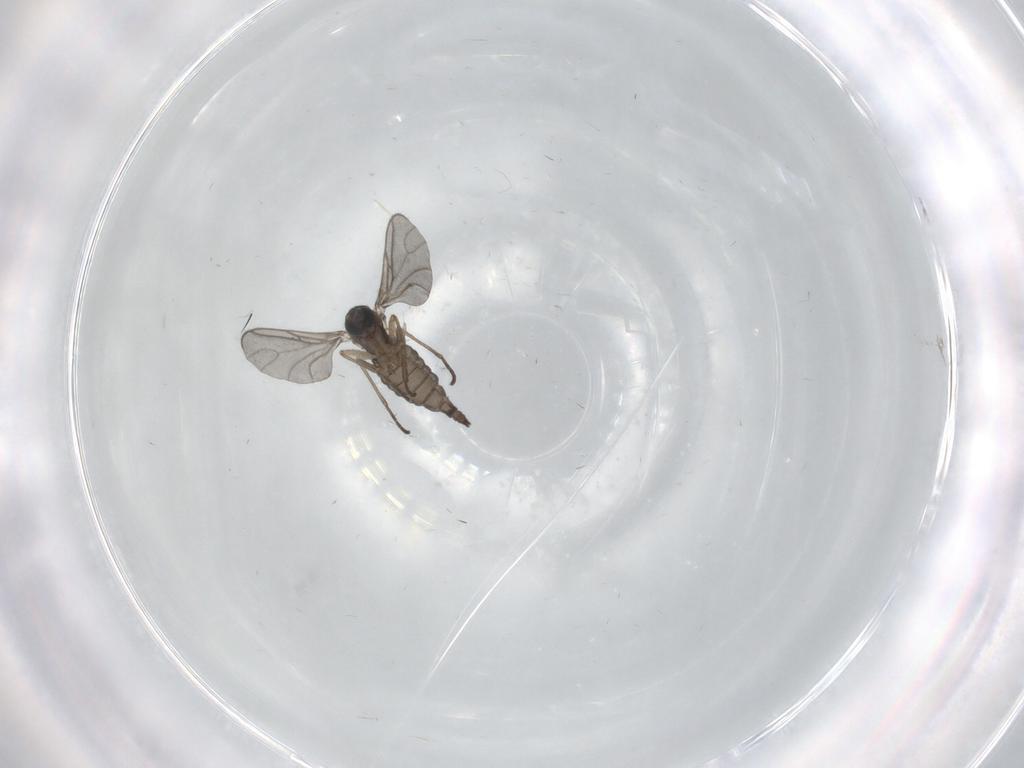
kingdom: Animalia
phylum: Arthropoda
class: Insecta
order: Diptera
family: Sciaridae
